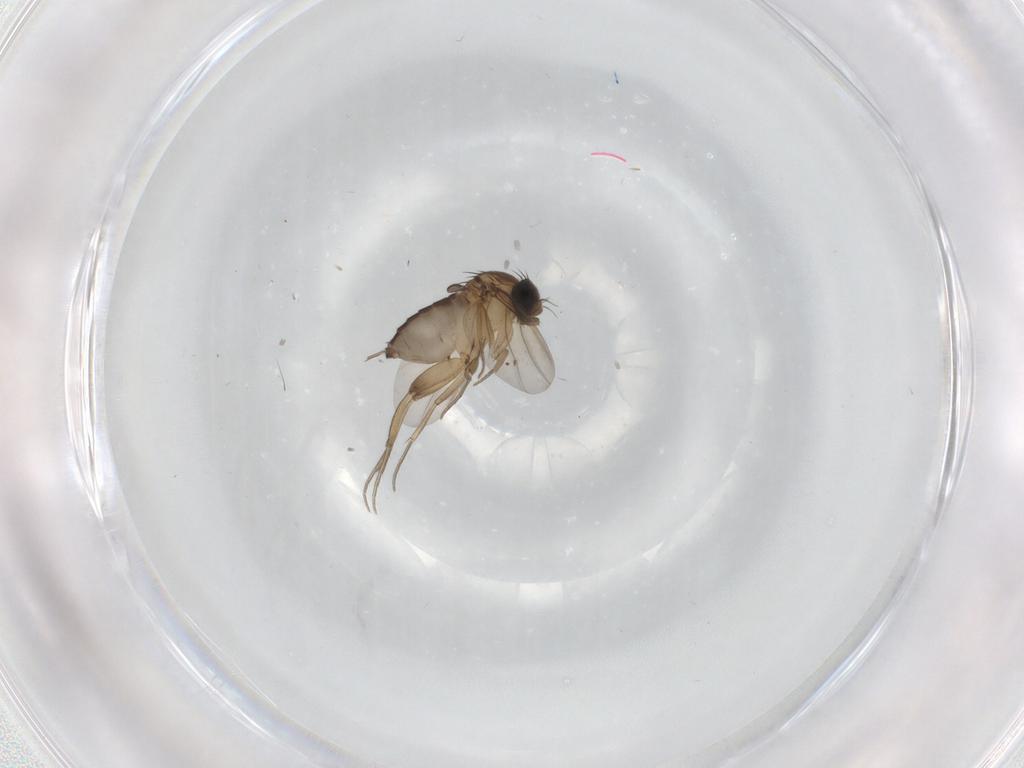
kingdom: Animalia
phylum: Arthropoda
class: Insecta
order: Diptera
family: Phoridae
